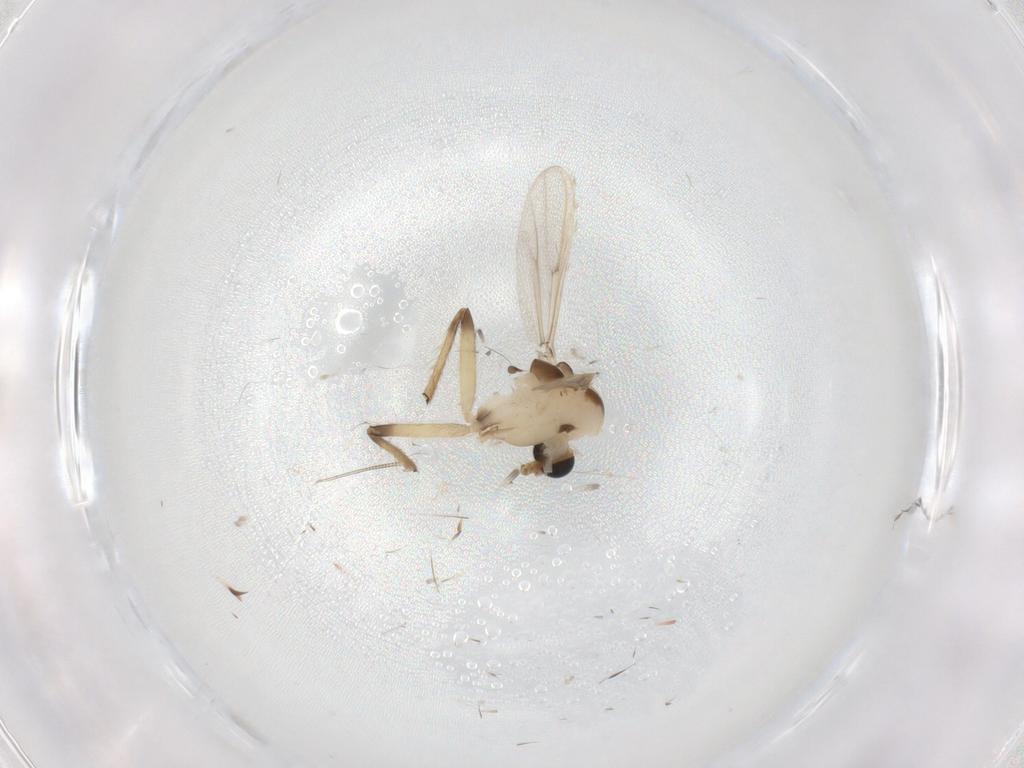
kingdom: Animalia
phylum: Arthropoda
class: Insecta
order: Diptera
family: Chironomidae
